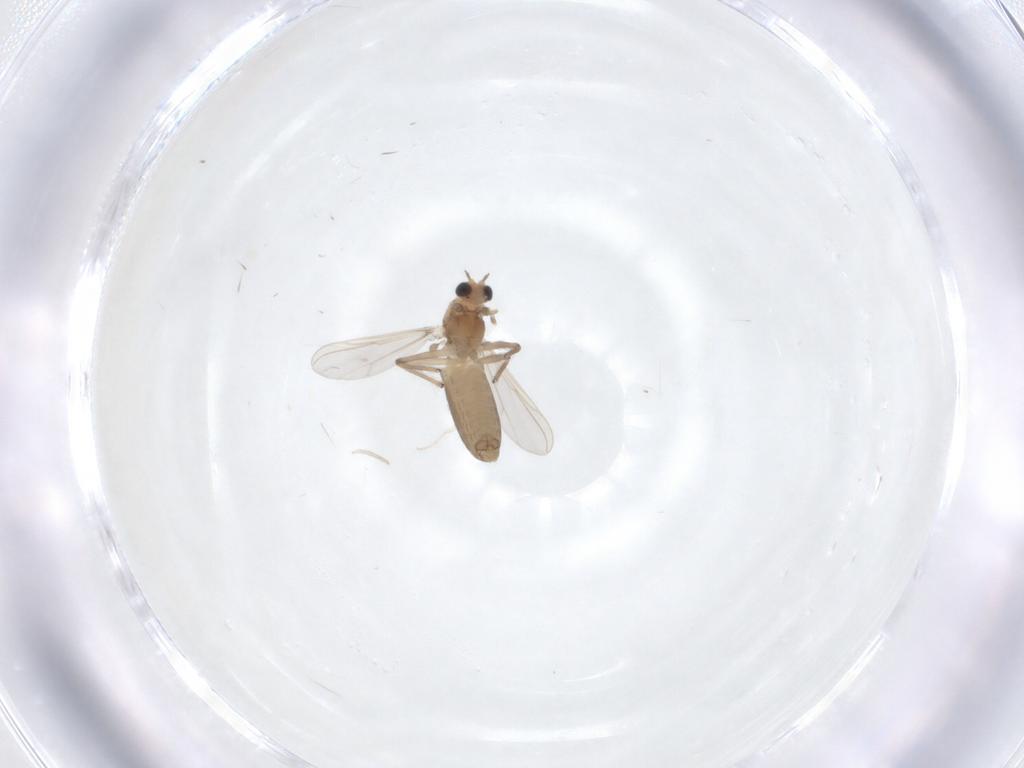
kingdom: Animalia
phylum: Arthropoda
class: Insecta
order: Diptera
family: Chironomidae
